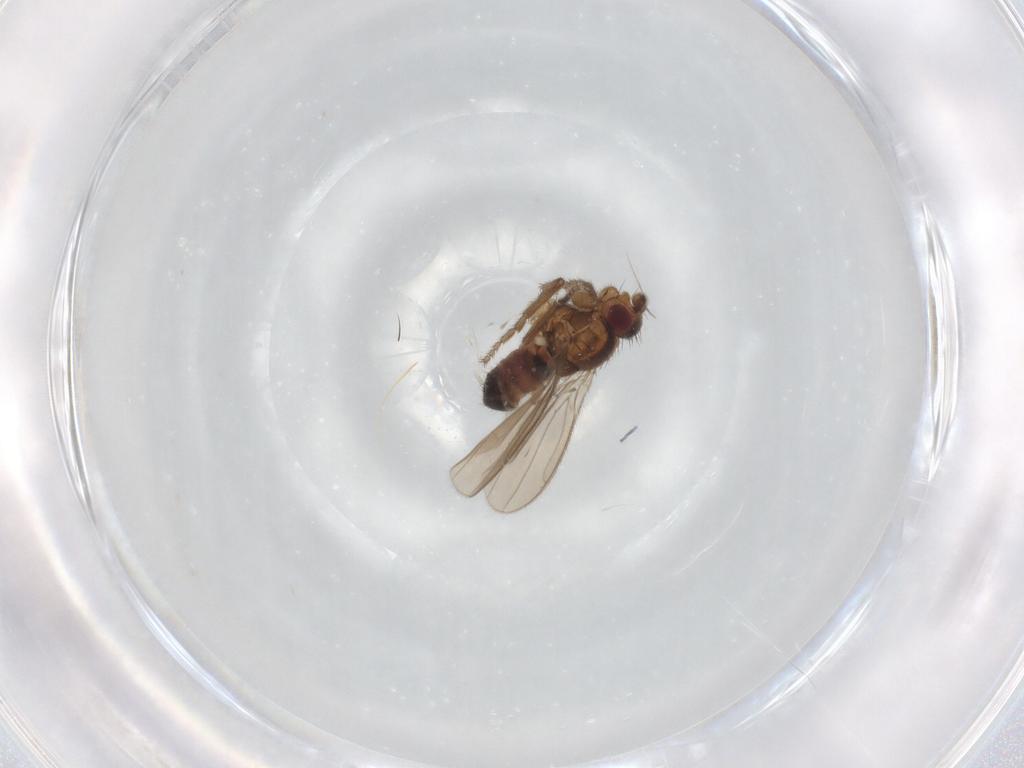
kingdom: Animalia
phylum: Arthropoda
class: Insecta
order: Diptera
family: Sphaeroceridae
